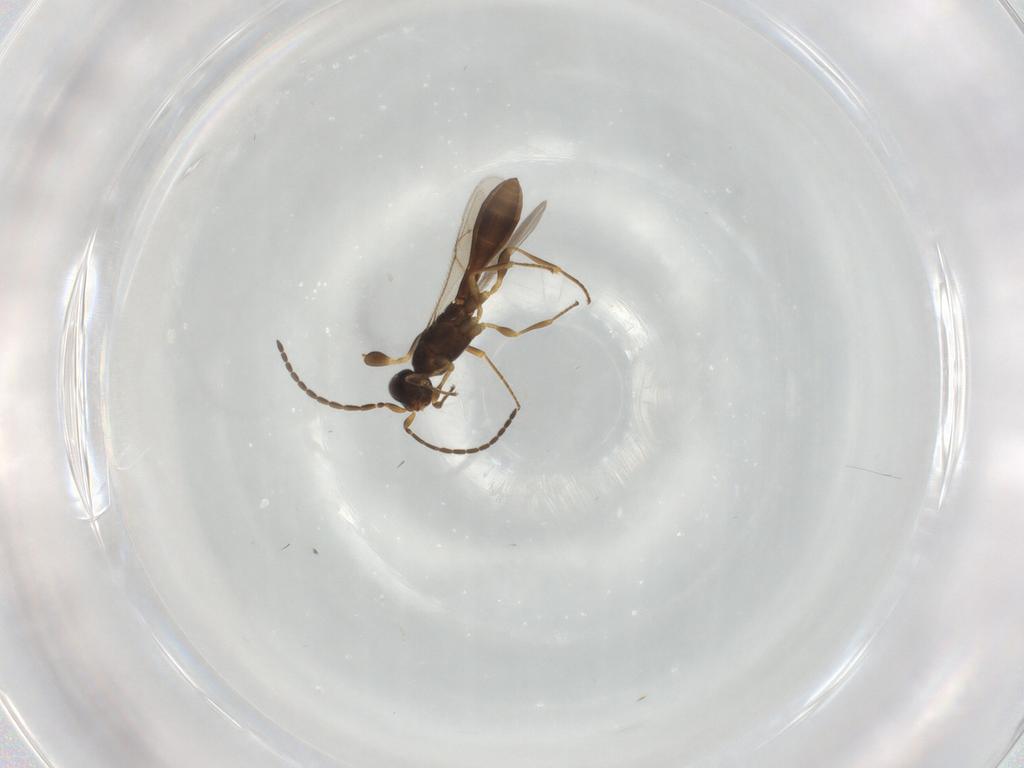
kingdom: Animalia
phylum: Arthropoda
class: Insecta
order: Hymenoptera
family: Scelionidae
